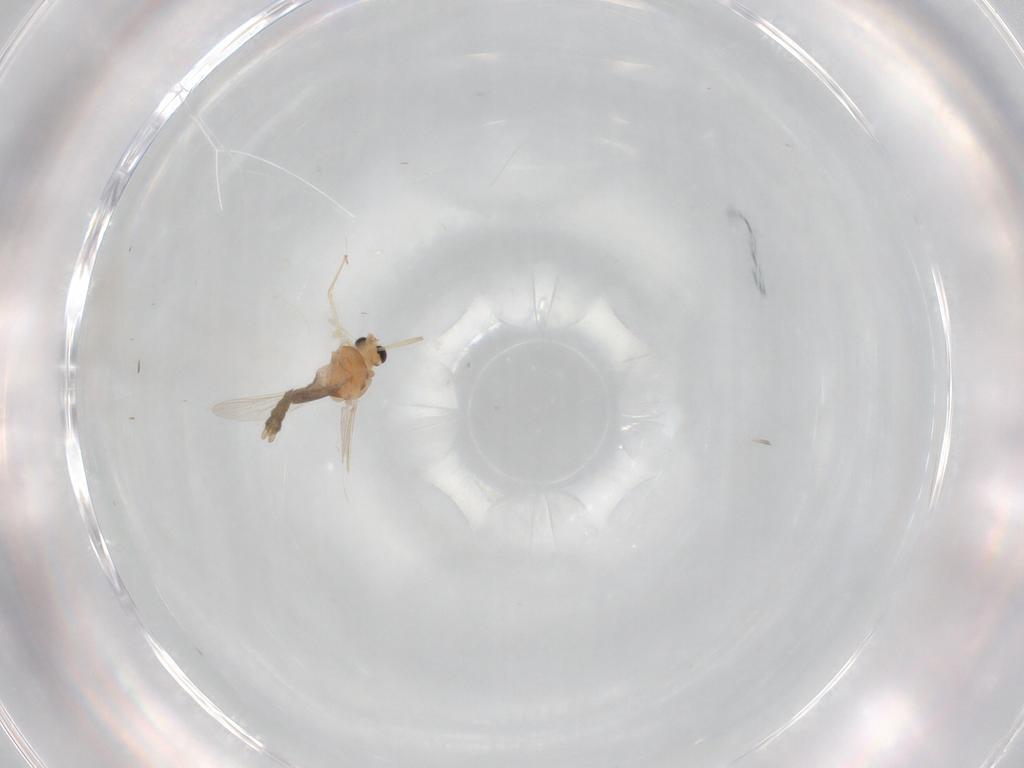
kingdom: Animalia
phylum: Arthropoda
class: Insecta
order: Diptera
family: Chironomidae
